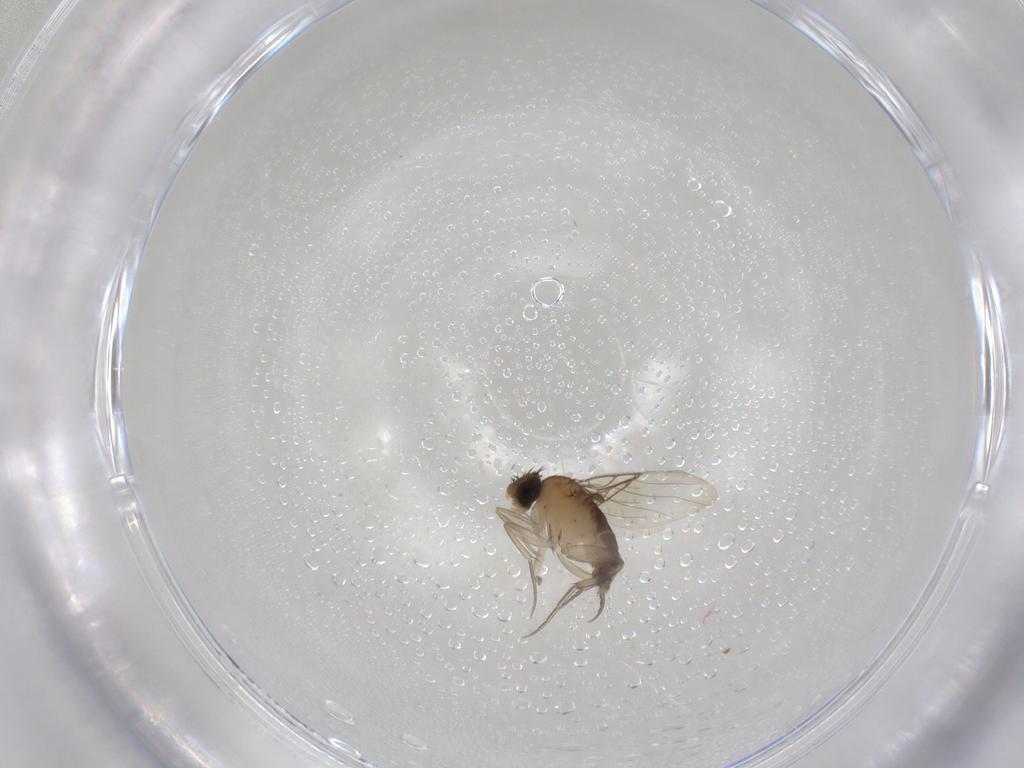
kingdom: Animalia
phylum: Arthropoda
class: Insecta
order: Diptera
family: Phoridae
